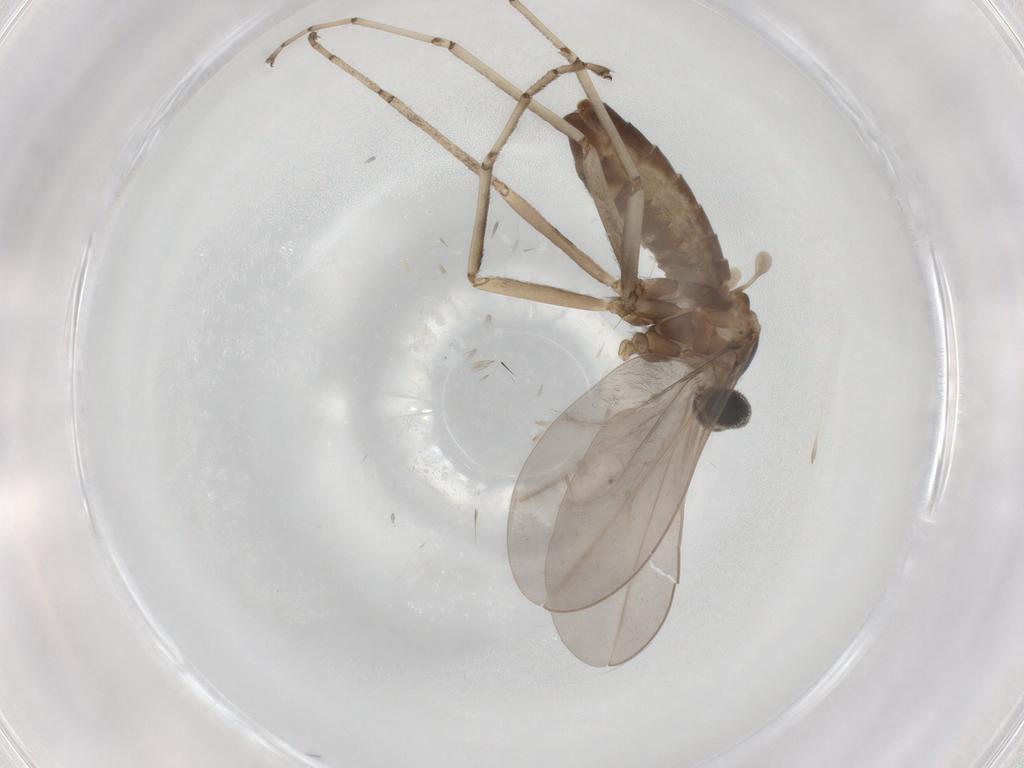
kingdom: Animalia
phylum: Arthropoda
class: Insecta
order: Diptera
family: Cecidomyiidae
